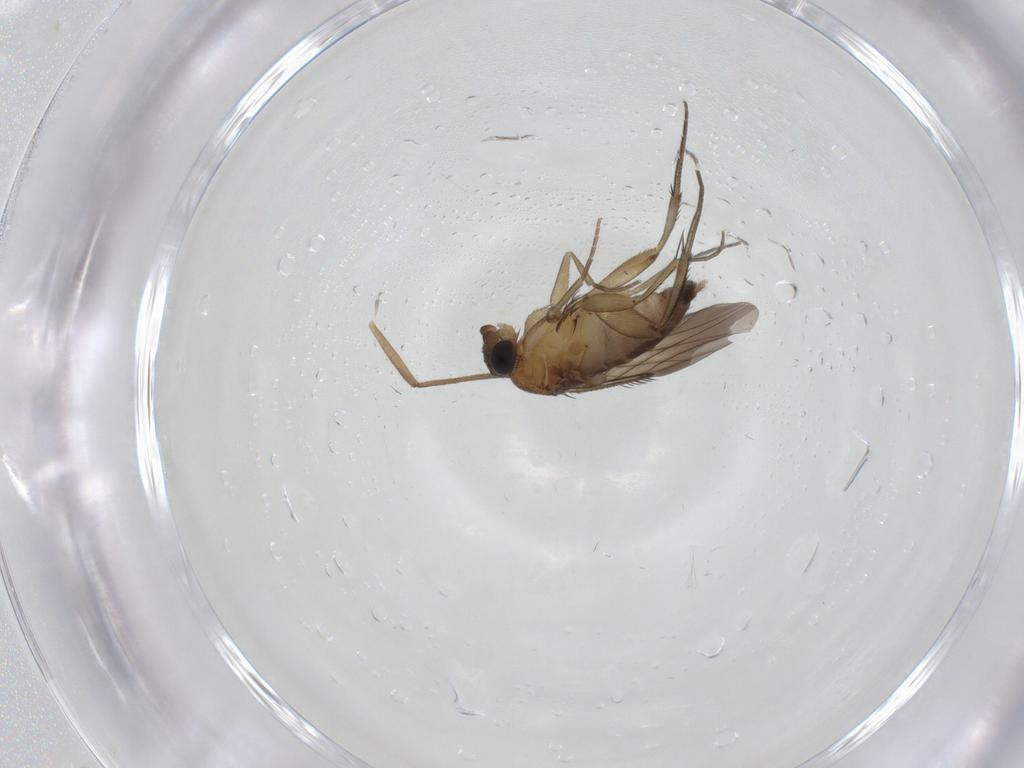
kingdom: Animalia
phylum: Arthropoda
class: Insecta
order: Diptera
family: Phoridae
